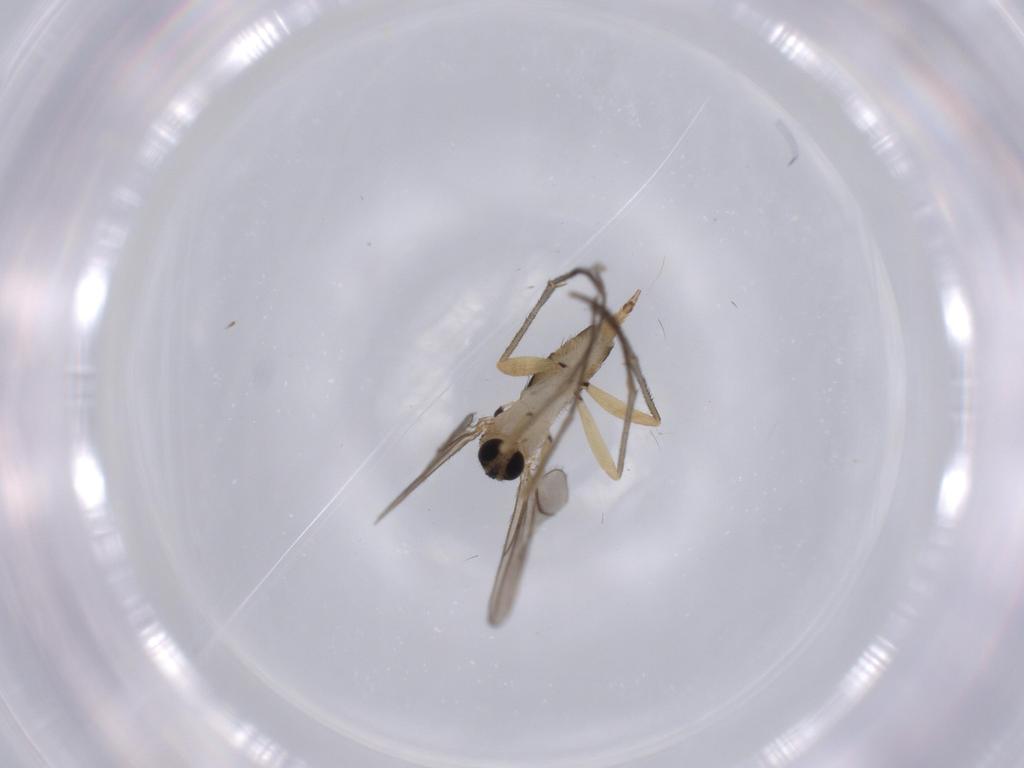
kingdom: Animalia
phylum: Arthropoda
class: Insecta
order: Diptera
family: Sciaridae
